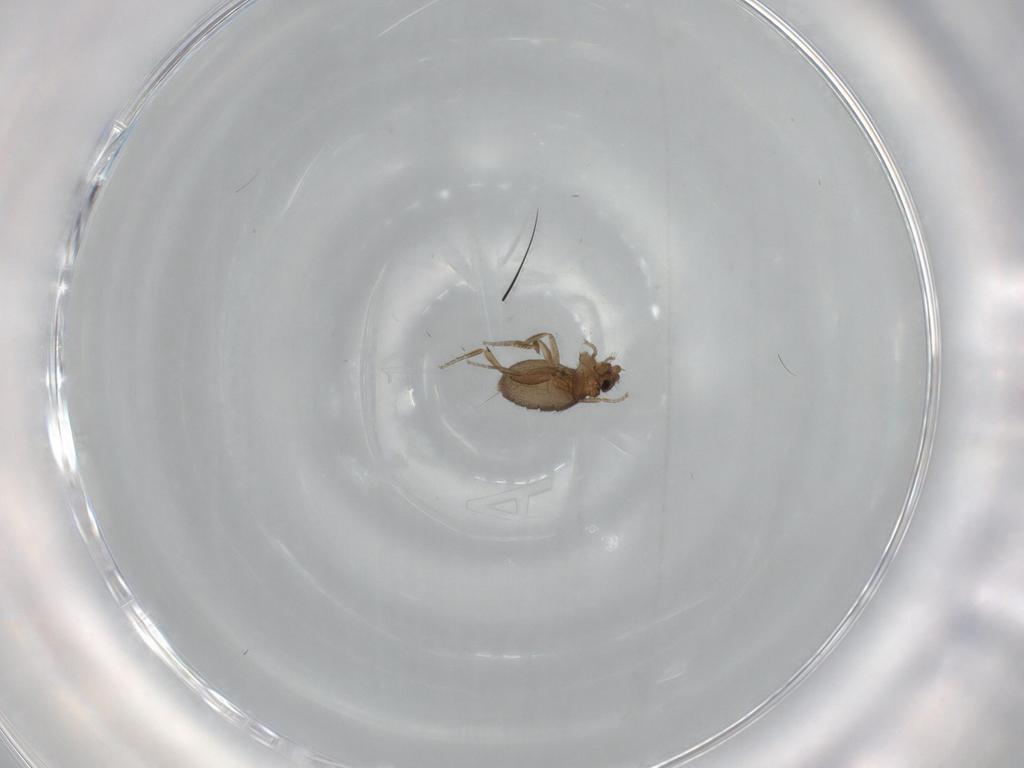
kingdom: Animalia
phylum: Arthropoda
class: Insecta
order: Diptera
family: Phoridae
